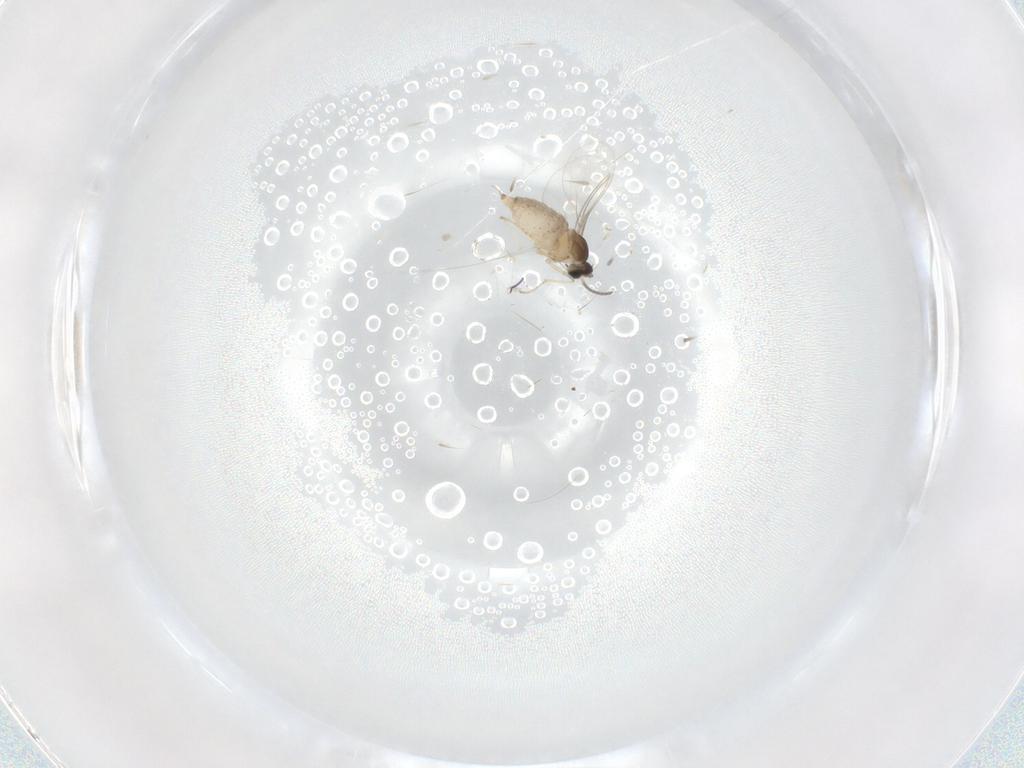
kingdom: Animalia
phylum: Arthropoda
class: Insecta
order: Diptera
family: Cecidomyiidae
